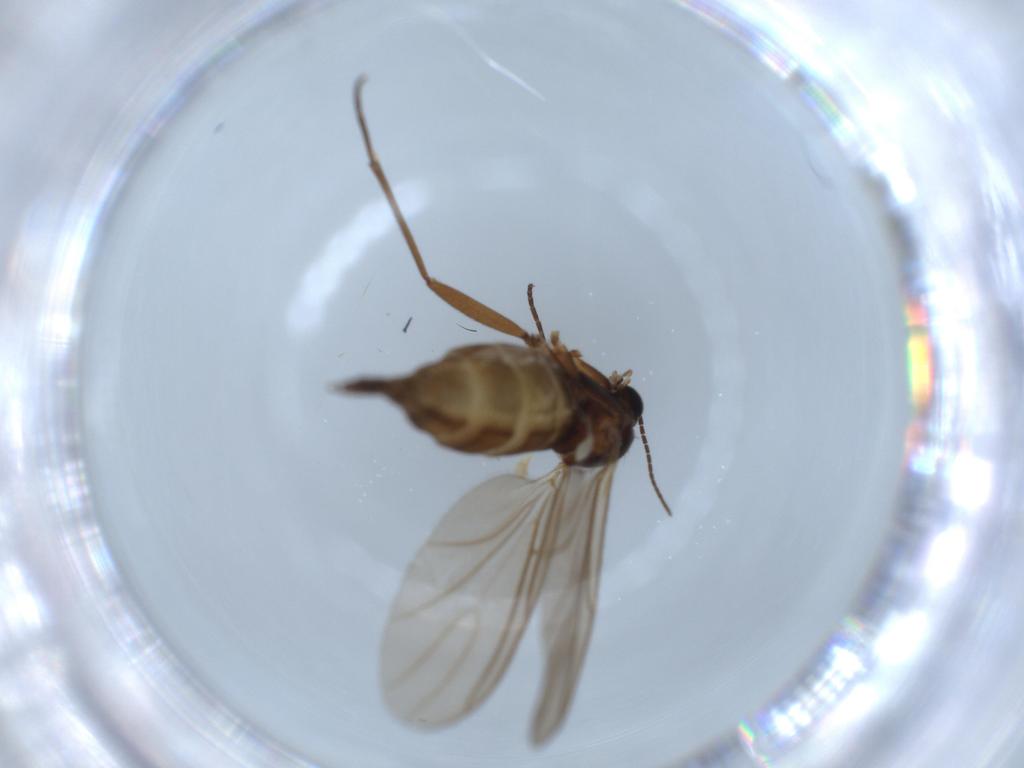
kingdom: Animalia
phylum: Arthropoda
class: Insecta
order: Diptera
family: Sciaridae
